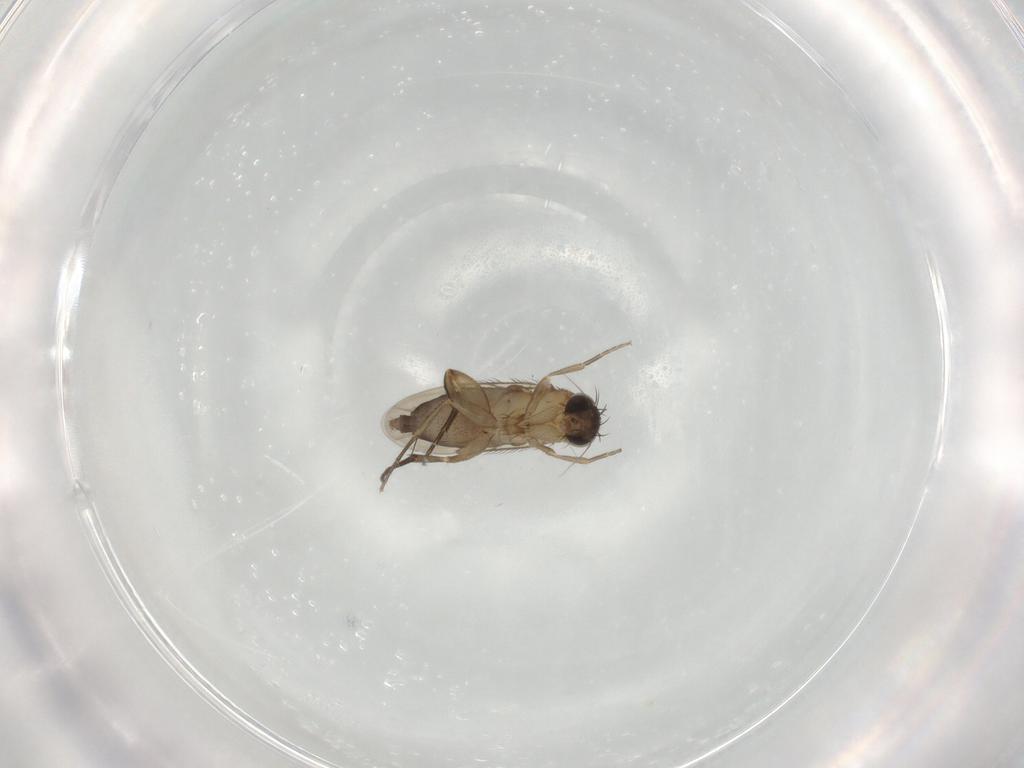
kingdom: Animalia
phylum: Arthropoda
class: Insecta
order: Diptera
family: Phoridae
